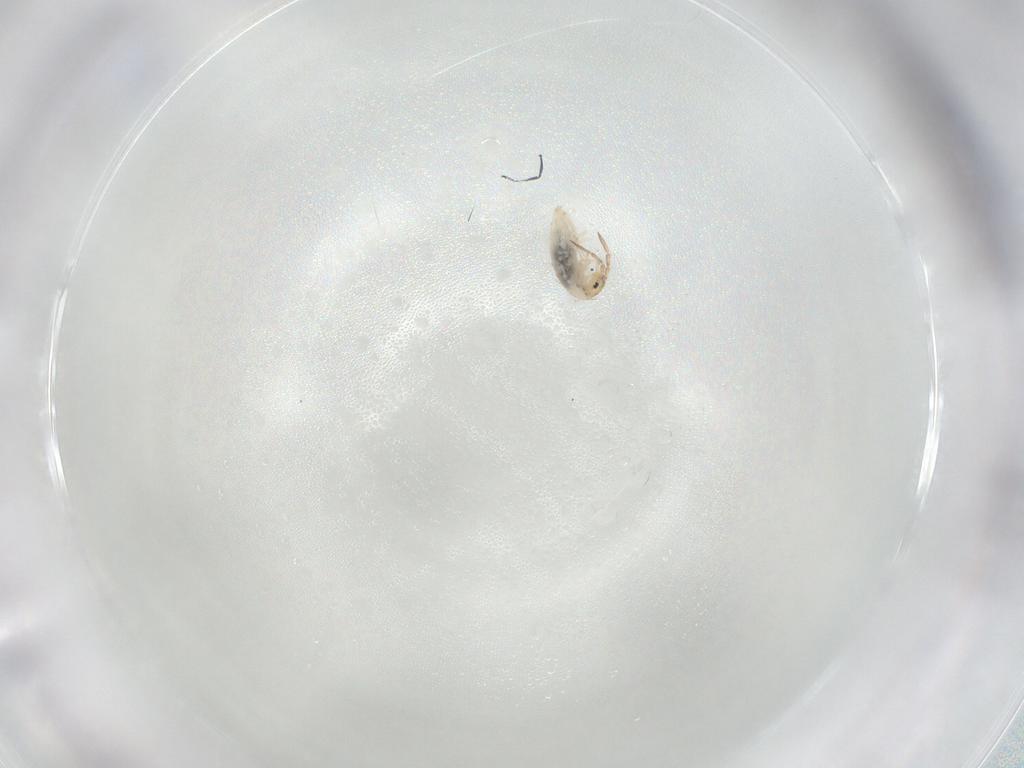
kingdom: Animalia
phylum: Arthropoda
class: Collembola
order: Entomobryomorpha
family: Entomobryidae
